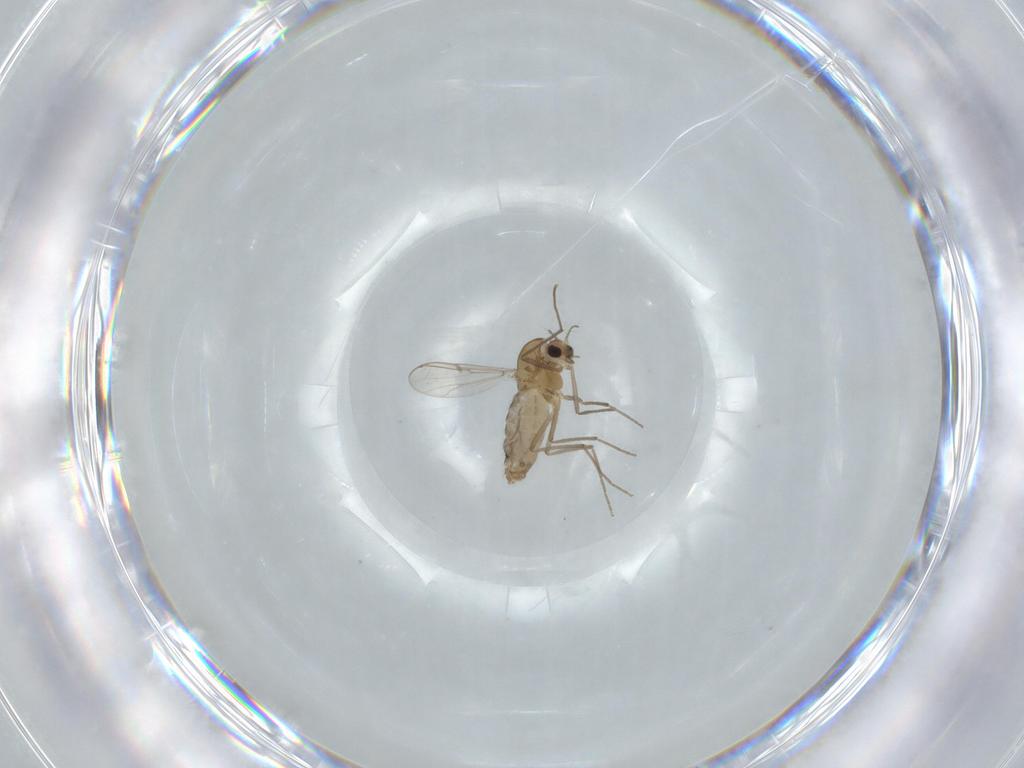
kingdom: Animalia
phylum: Arthropoda
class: Insecta
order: Diptera
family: Chironomidae
